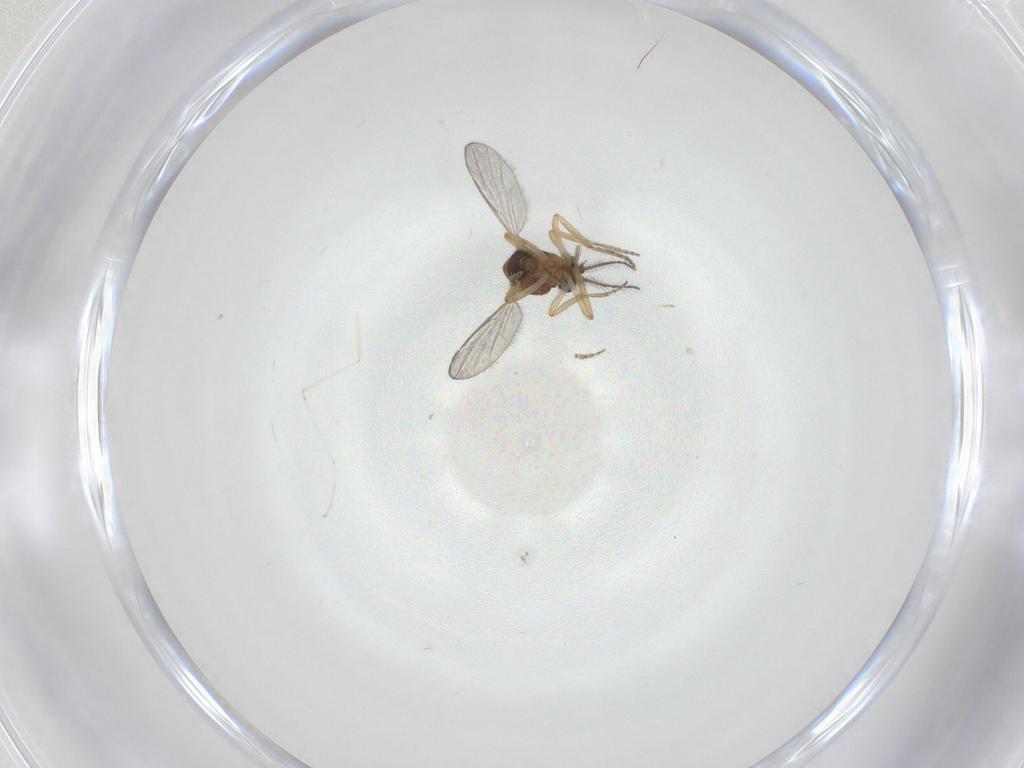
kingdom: Animalia
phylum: Arthropoda
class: Insecta
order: Diptera
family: Ceratopogonidae
